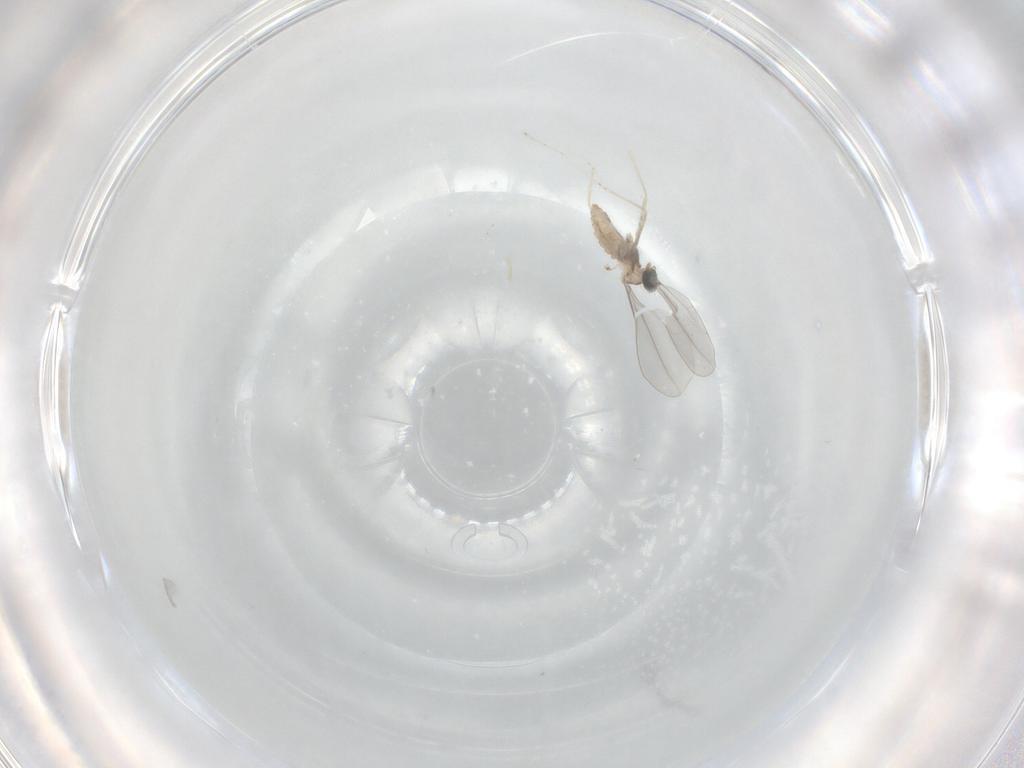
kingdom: Animalia
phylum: Arthropoda
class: Insecta
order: Diptera
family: Cecidomyiidae
